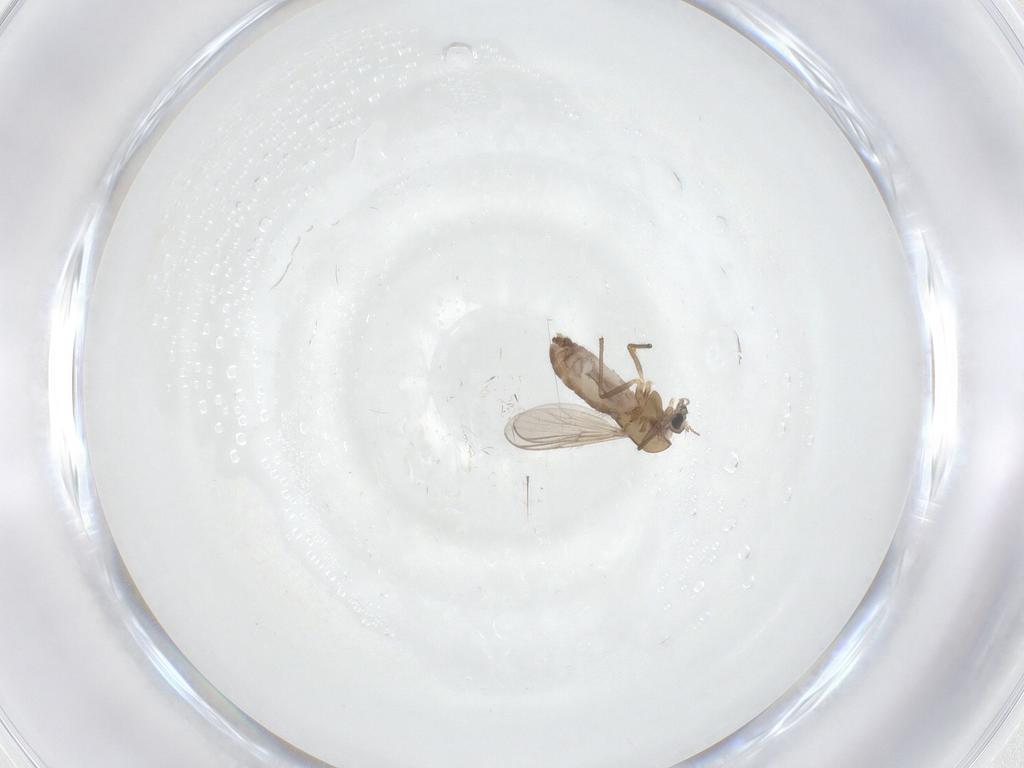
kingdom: Animalia
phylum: Arthropoda
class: Insecta
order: Diptera
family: Chironomidae
